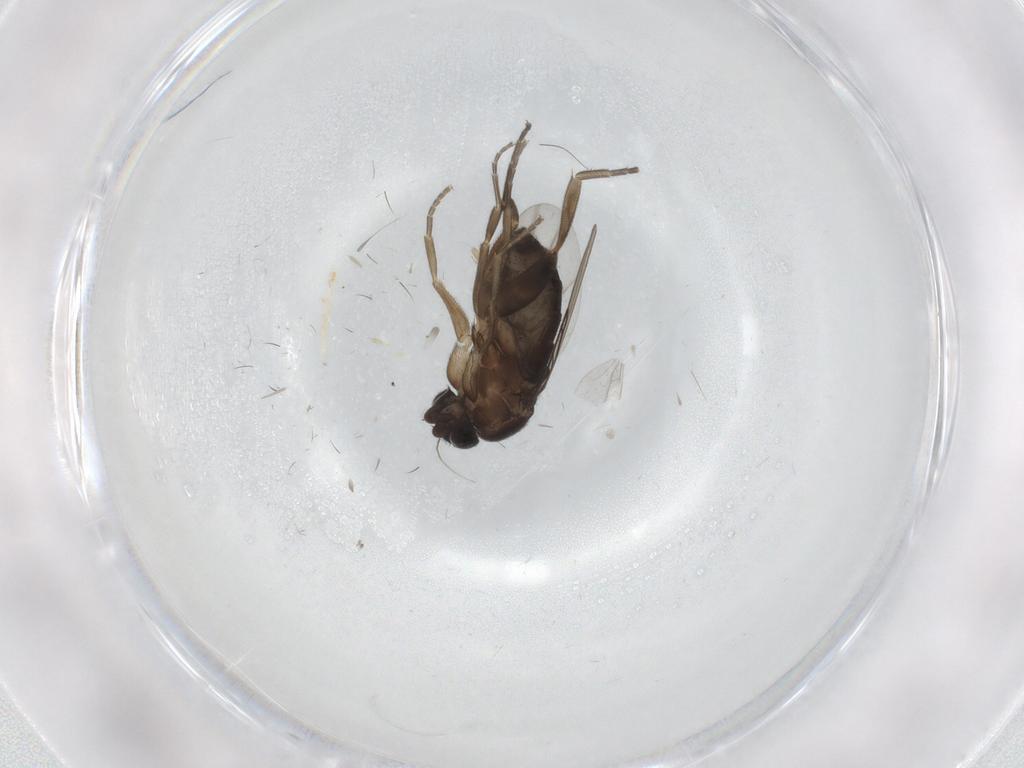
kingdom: Animalia
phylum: Arthropoda
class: Insecta
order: Diptera
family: Phoridae
